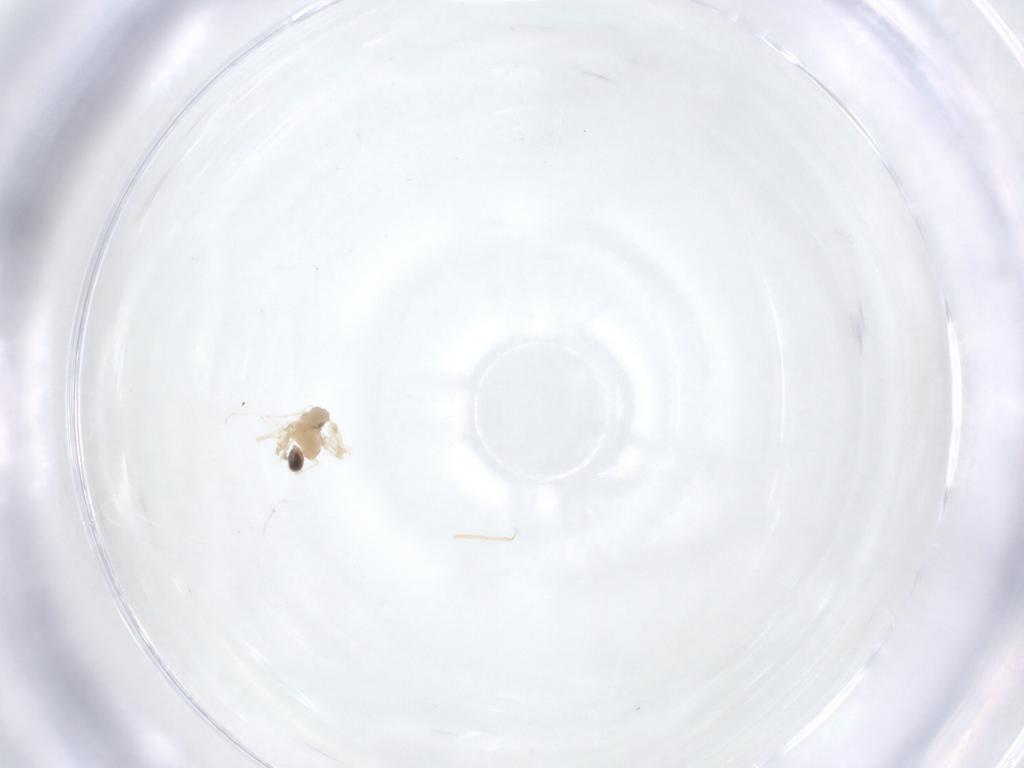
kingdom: Animalia
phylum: Arthropoda
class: Insecta
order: Diptera
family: Cecidomyiidae
